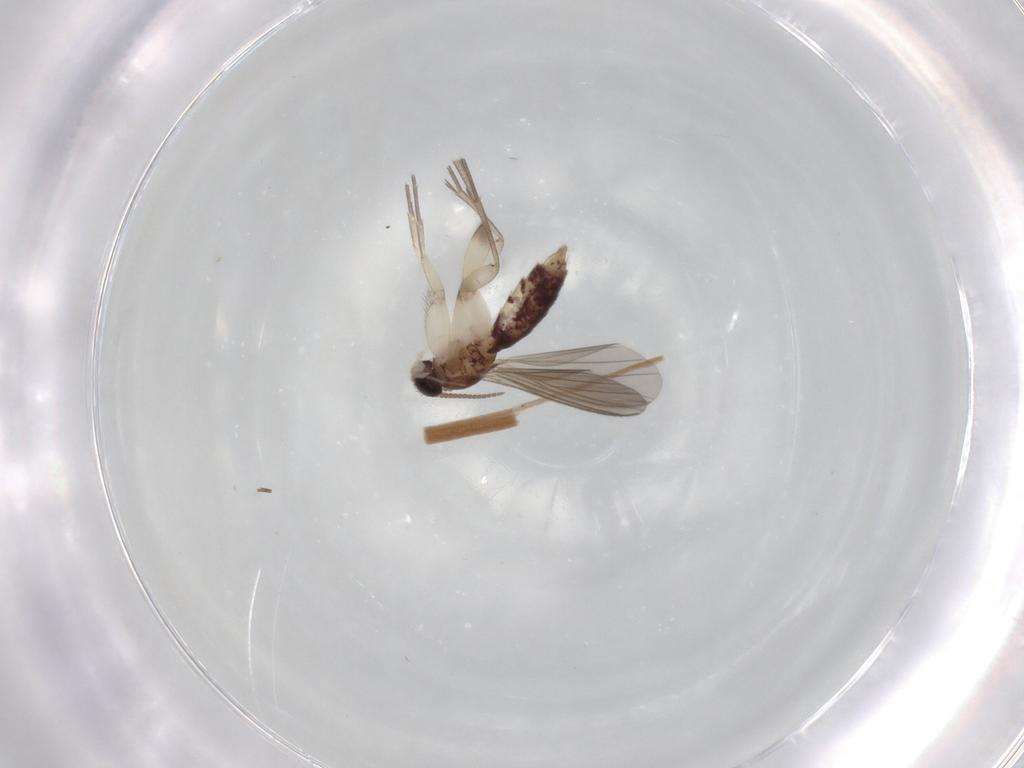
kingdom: Animalia
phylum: Arthropoda
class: Insecta
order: Diptera
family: Mycetophilidae
